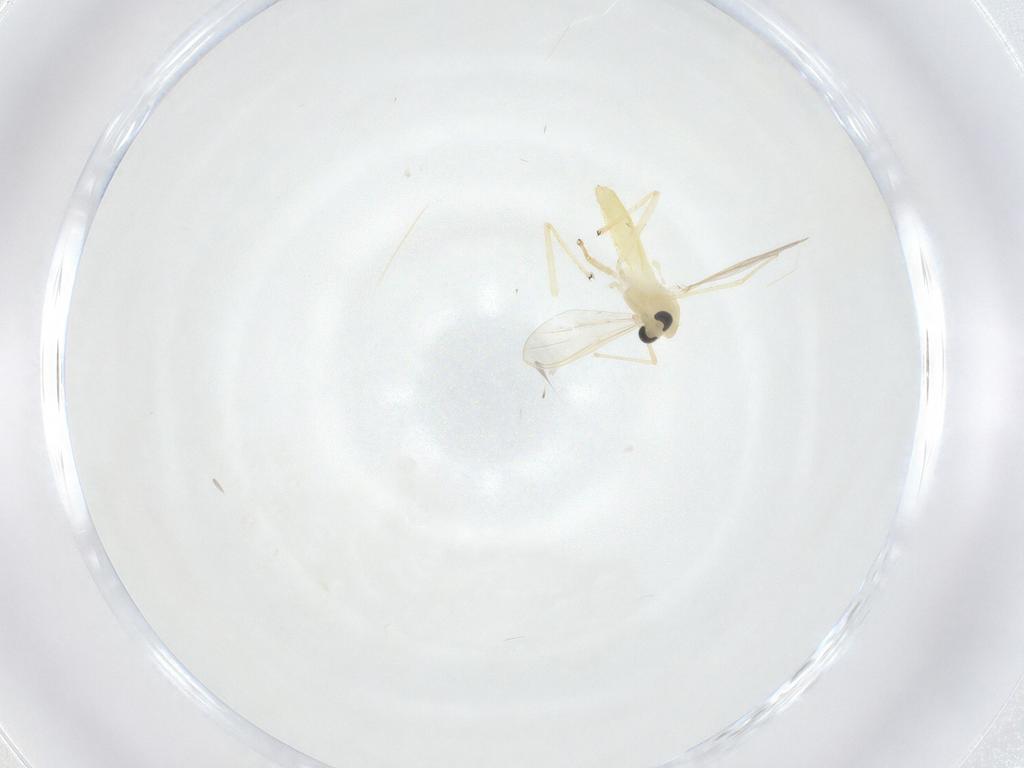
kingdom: Animalia
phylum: Arthropoda
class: Insecta
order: Diptera
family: Chironomidae
